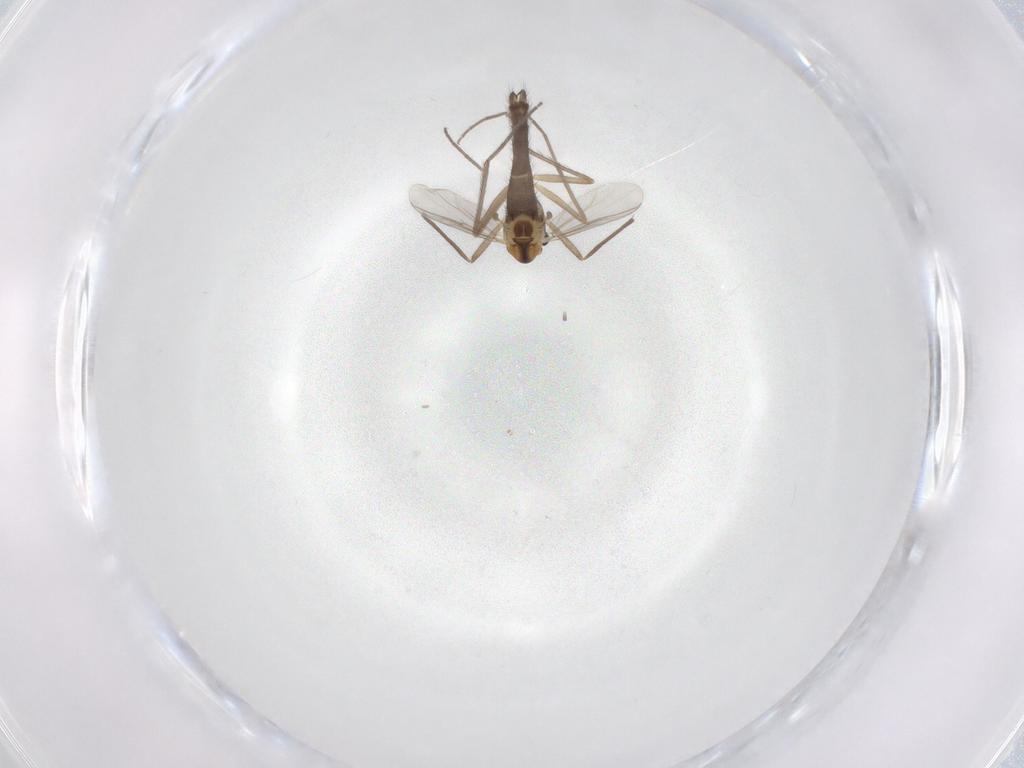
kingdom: Animalia
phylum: Arthropoda
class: Insecta
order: Diptera
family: Chironomidae
